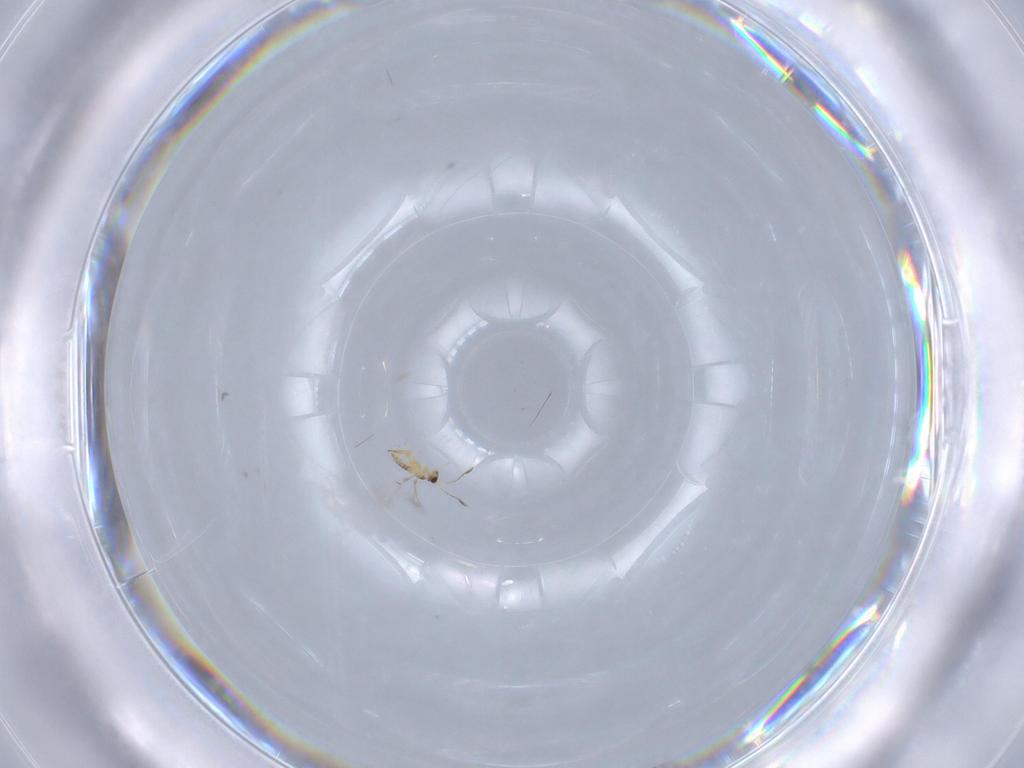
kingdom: Animalia
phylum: Arthropoda
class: Insecta
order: Hymenoptera
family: Mymaridae
